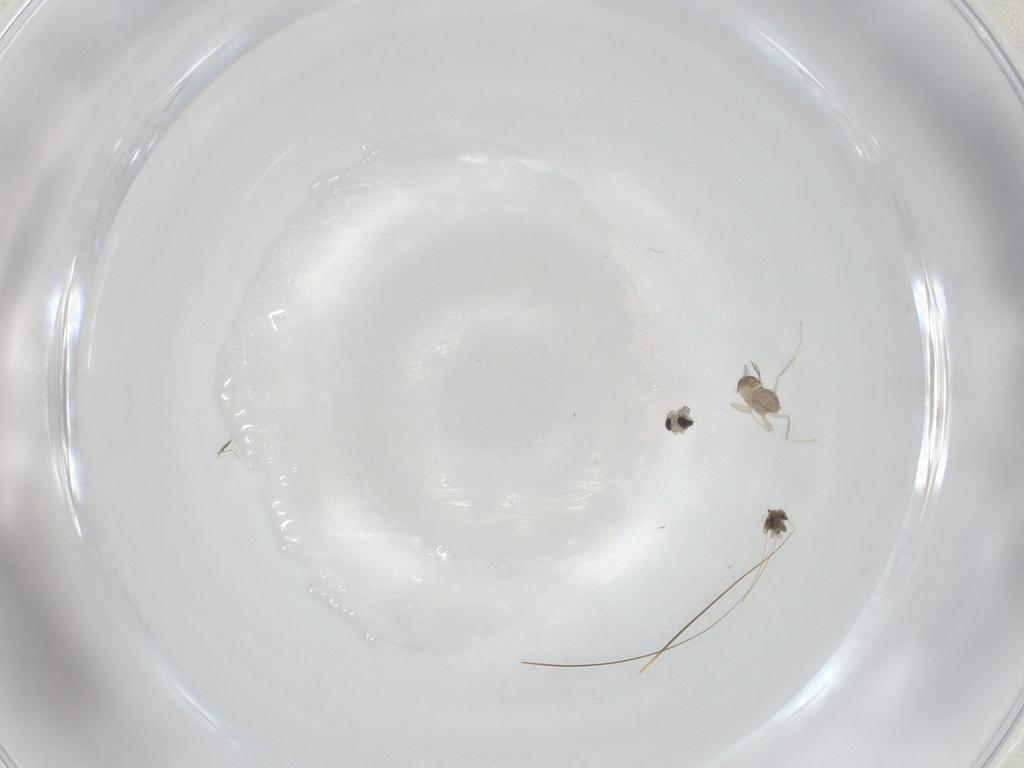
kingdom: Animalia
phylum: Arthropoda
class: Insecta
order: Diptera
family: Cecidomyiidae
